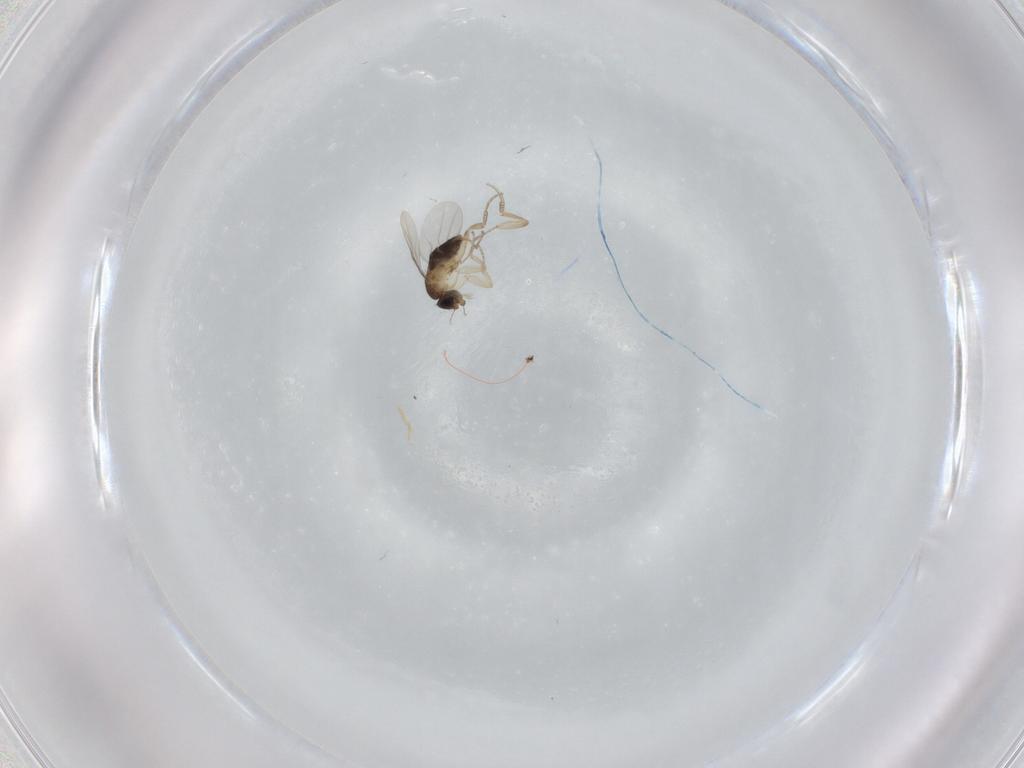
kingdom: Animalia
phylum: Arthropoda
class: Insecta
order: Diptera
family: Phoridae
